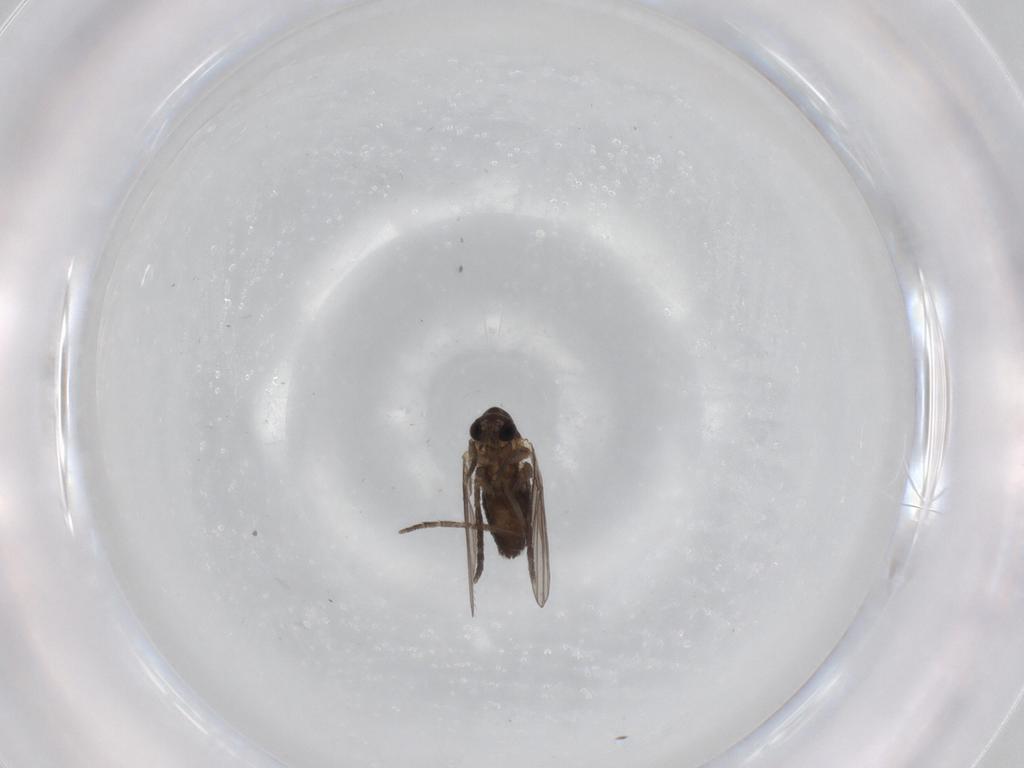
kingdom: Animalia
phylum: Arthropoda
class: Insecta
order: Diptera
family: Cecidomyiidae
